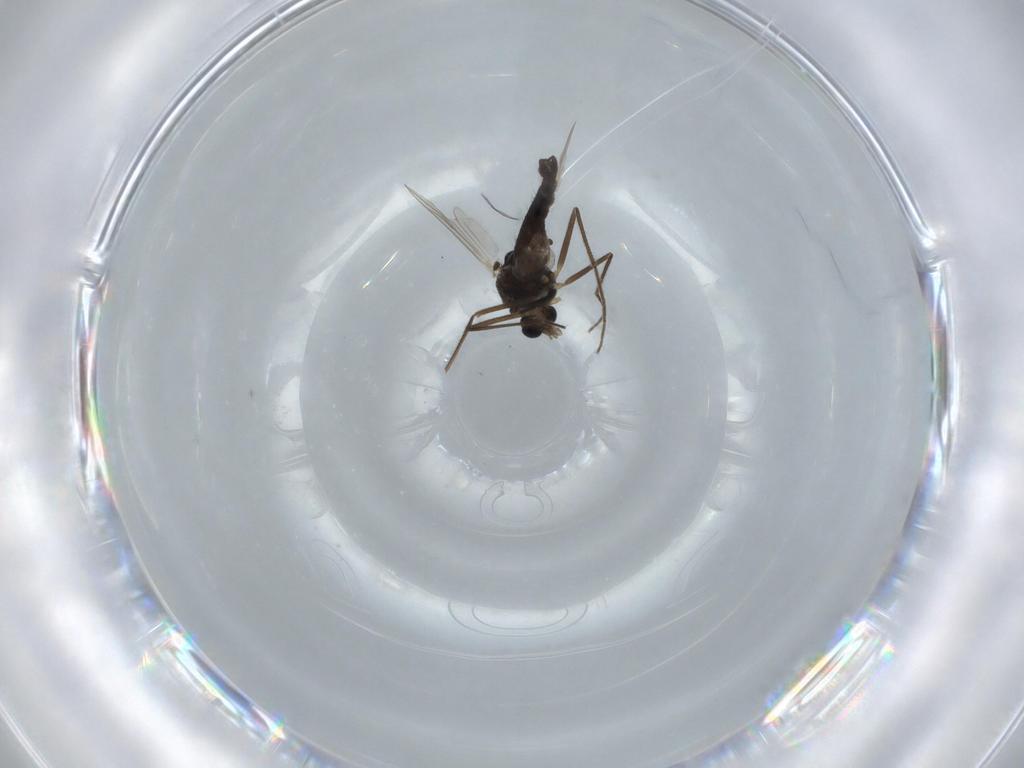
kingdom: Animalia
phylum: Arthropoda
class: Insecta
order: Diptera
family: Chironomidae
